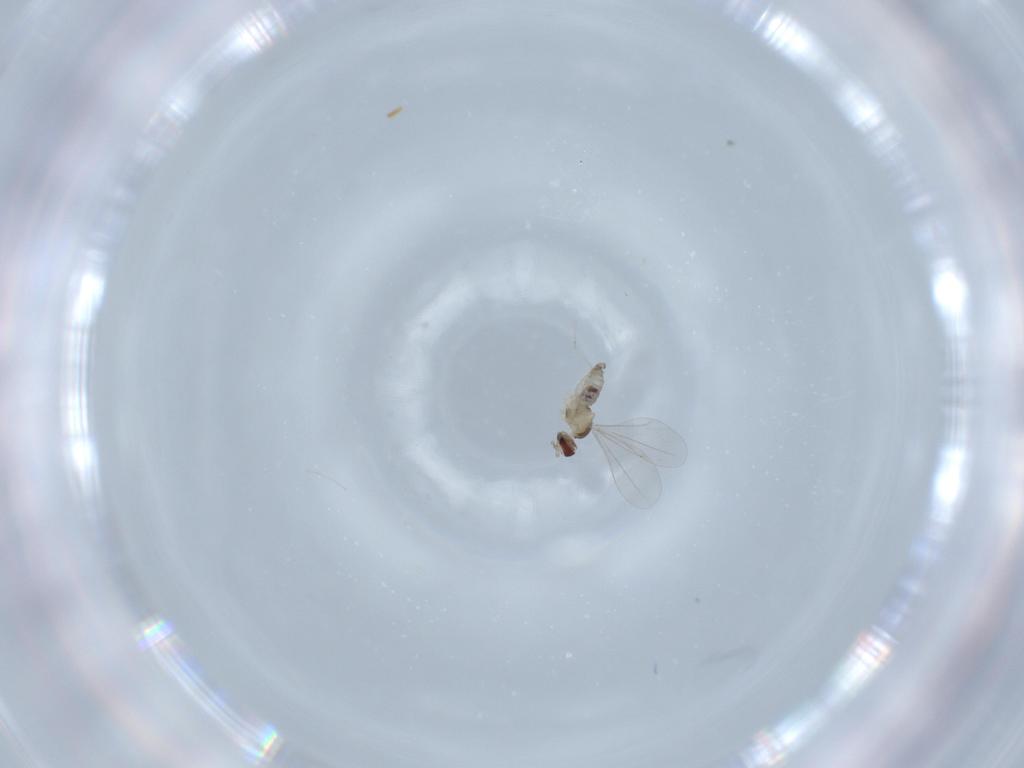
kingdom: Animalia
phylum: Arthropoda
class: Insecta
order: Diptera
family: Cecidomyiidae
